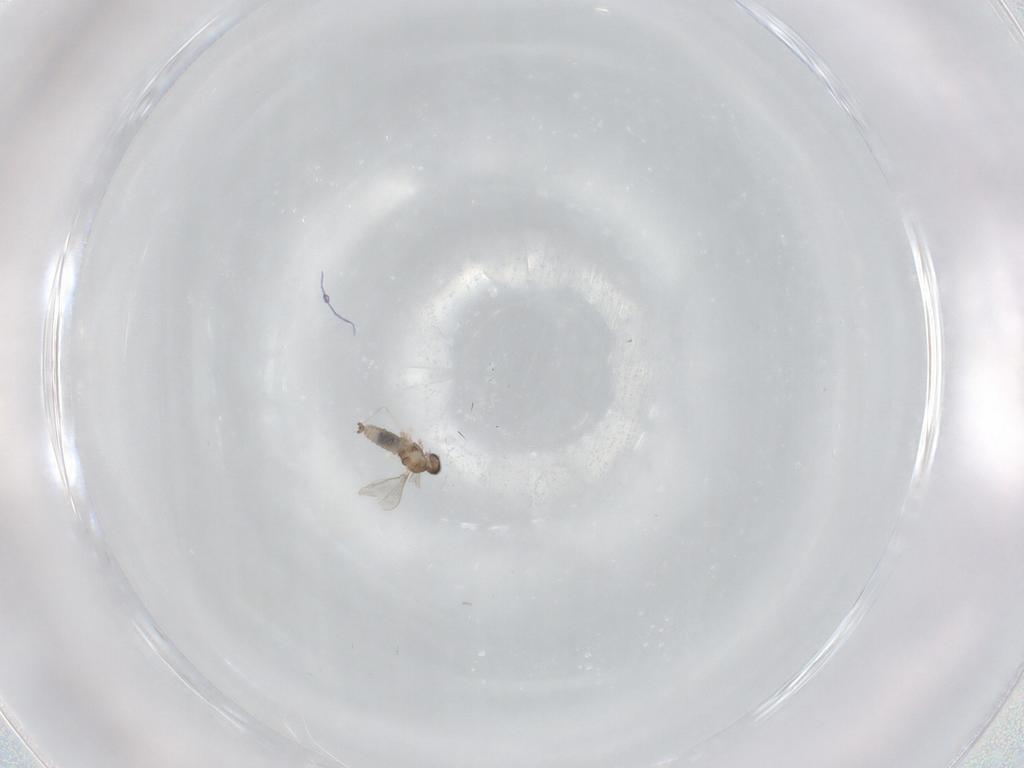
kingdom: Animalia
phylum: Arthropoda
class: Insecta
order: Diptera
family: Cecidomyiidae
